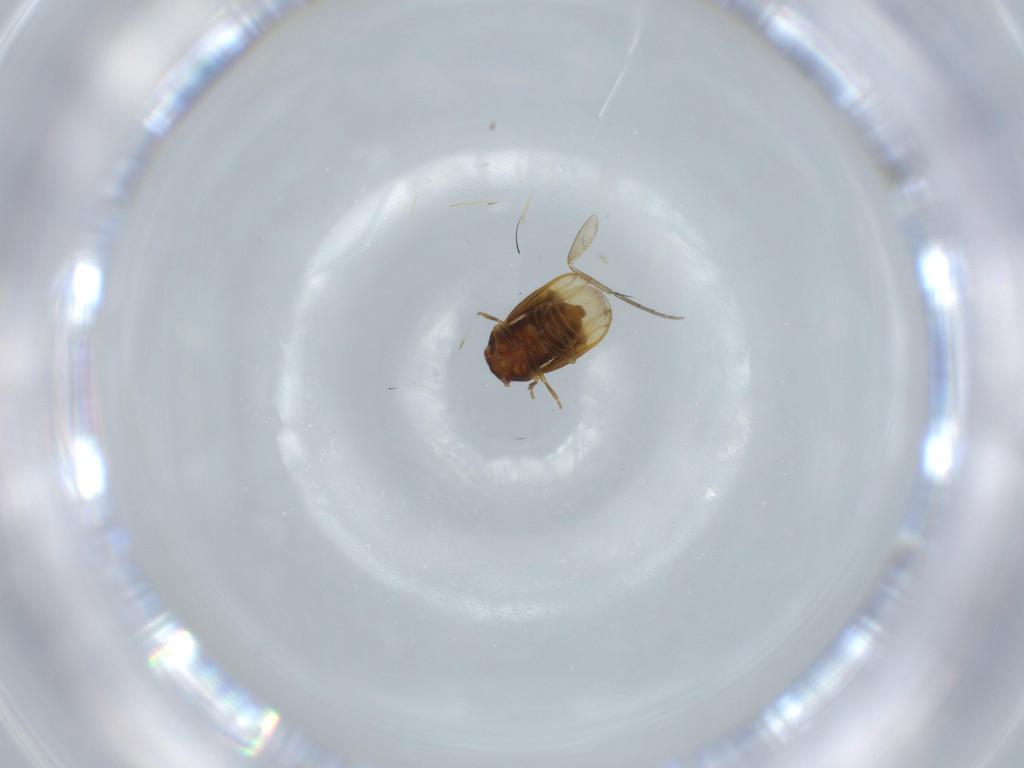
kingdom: Animalia
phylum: Arthropoda
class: Insecta
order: Diptera
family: Phoridae
